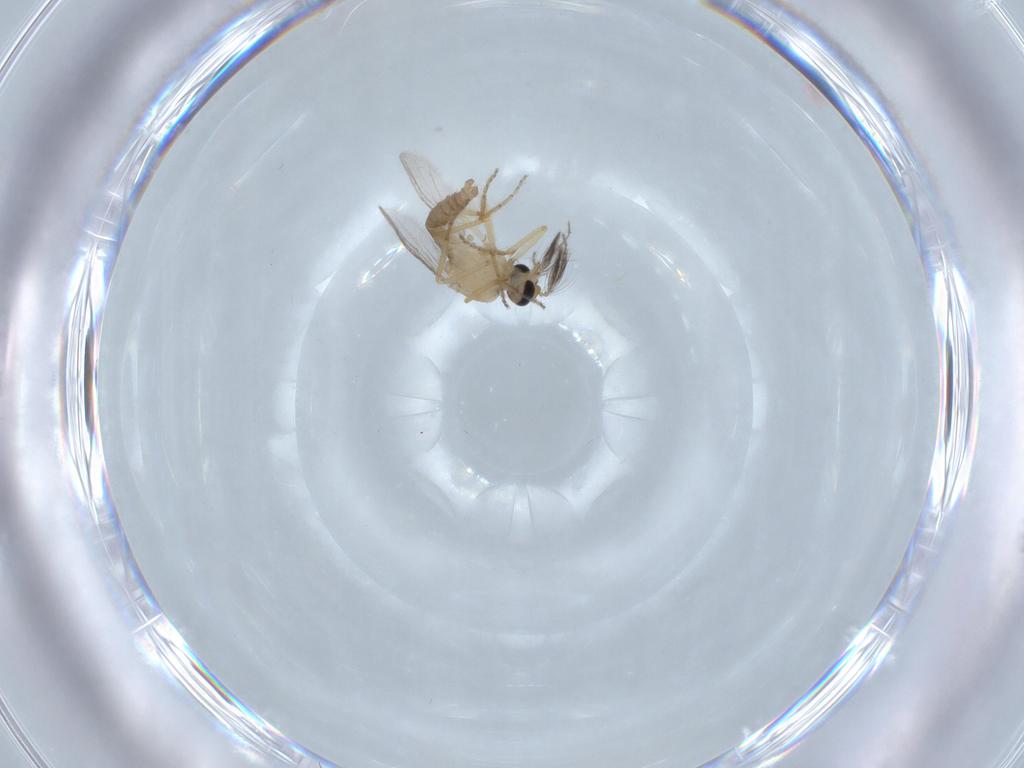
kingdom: Animalia
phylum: Arthropoda
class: Insecta
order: Diptera
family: Ceratopogonidae
